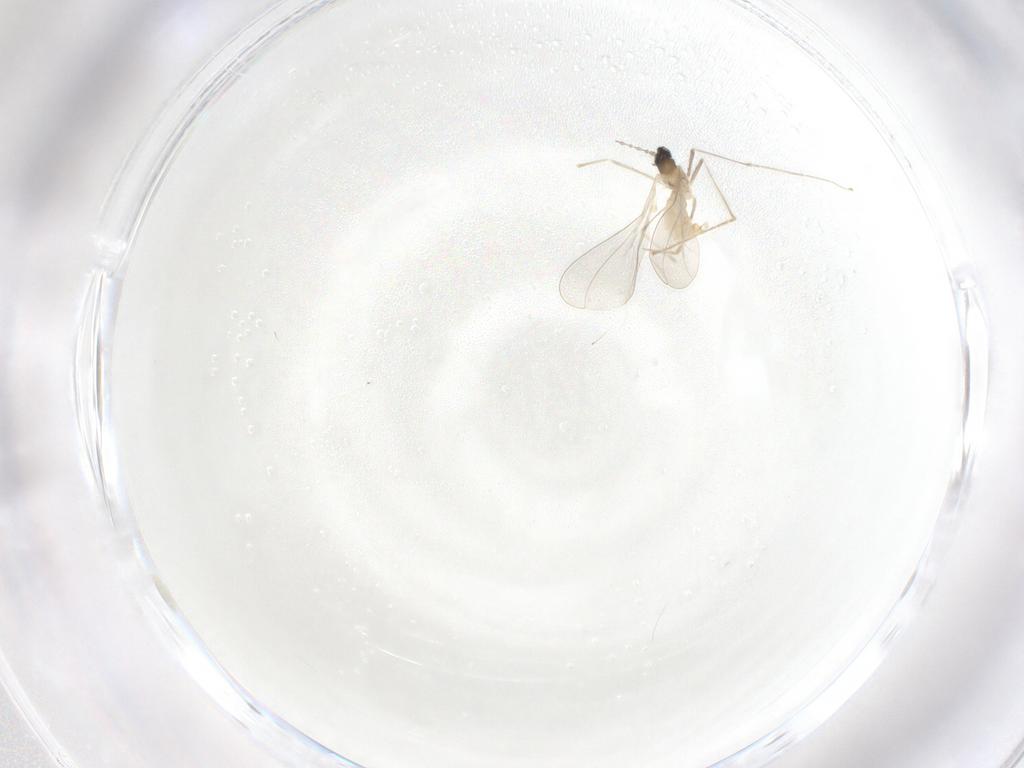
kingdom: Animalia
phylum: Arthropoda
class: Insecta
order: Diptera
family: Cecidomyiidae
